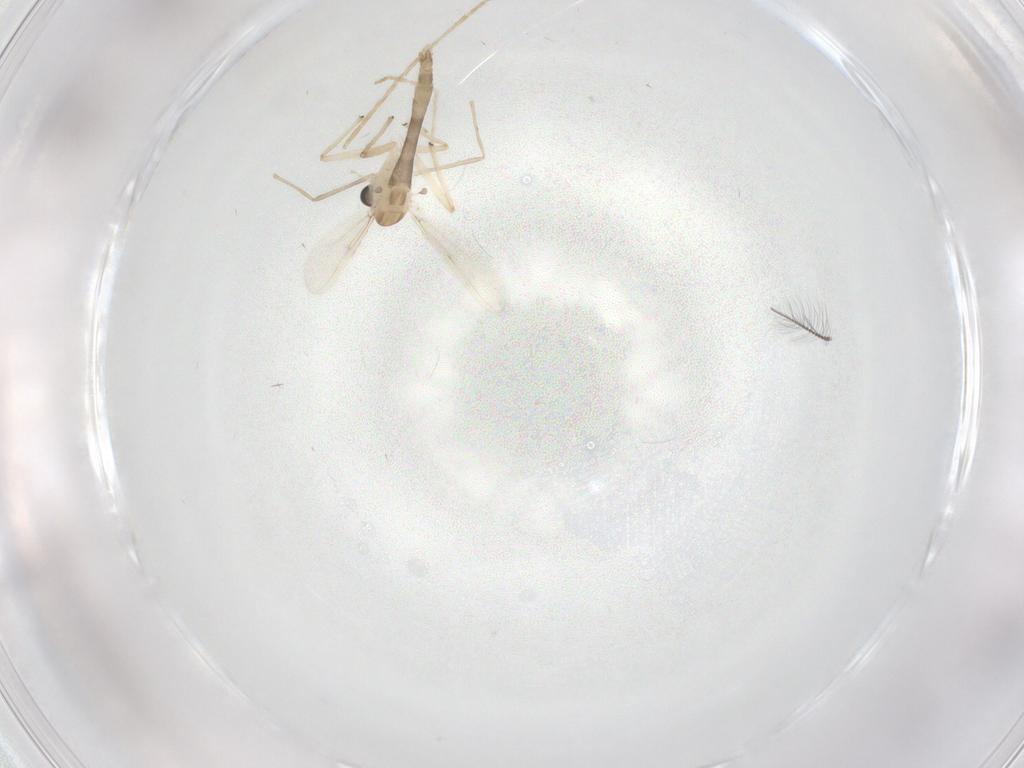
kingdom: Animalia
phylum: Arthropoda
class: Insecta
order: Diptera
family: Chironomidae
